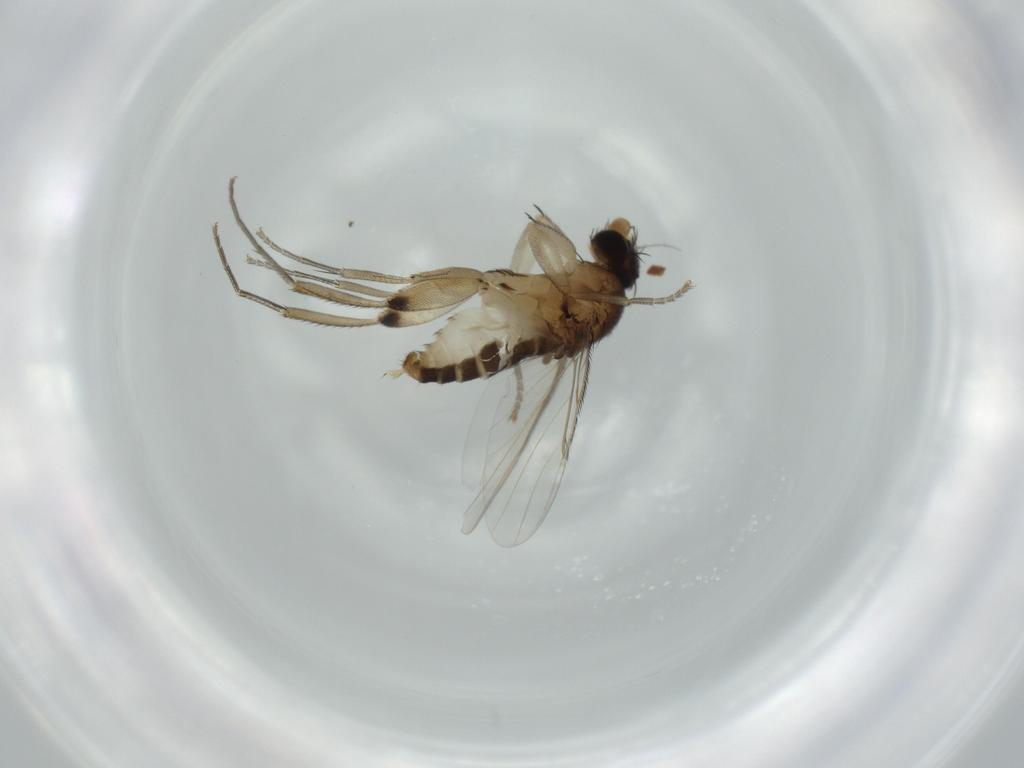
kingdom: Animalia
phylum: Arthropoda
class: Insecta
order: Diptera
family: Phoridae
